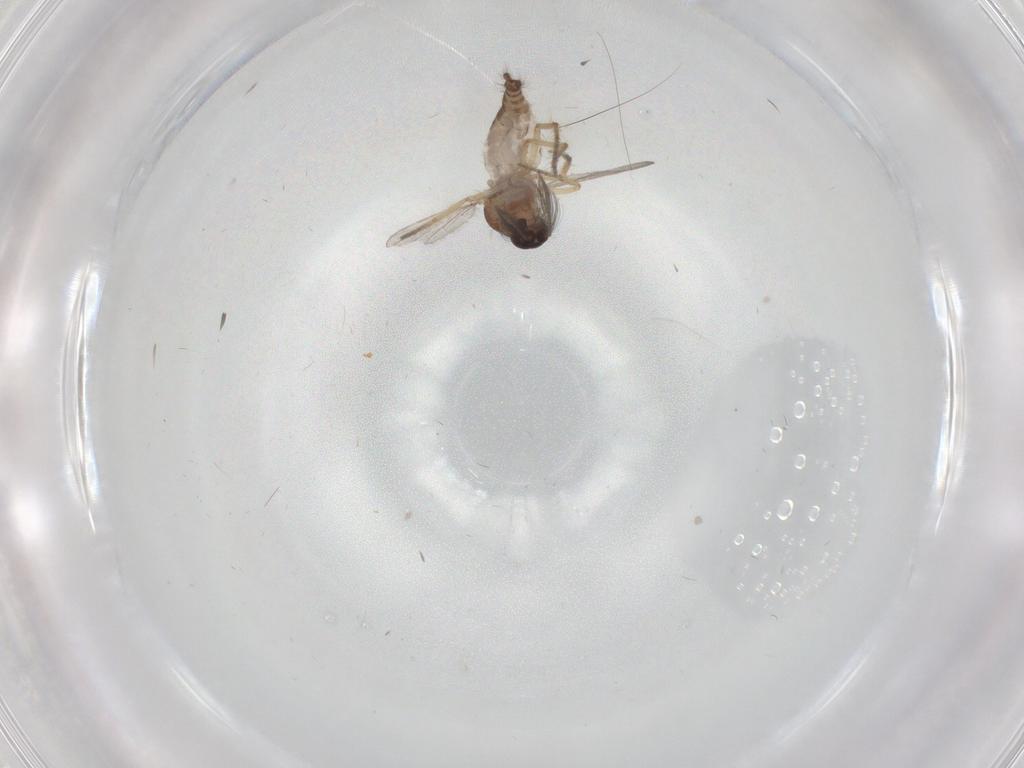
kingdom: Animalia
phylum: Arthropoda
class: Insecta
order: Diptera
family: Ceratopogonidae
